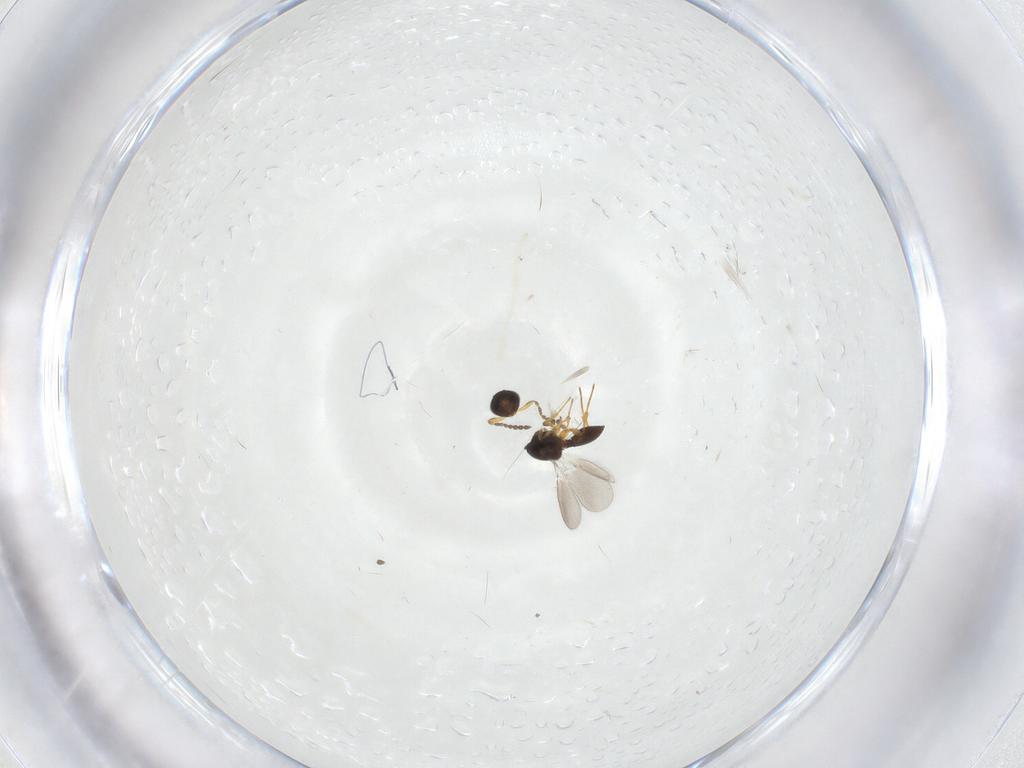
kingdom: Animalia
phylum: Arthropoda
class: Insecta
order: Hymenoptera
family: Platygastridae
